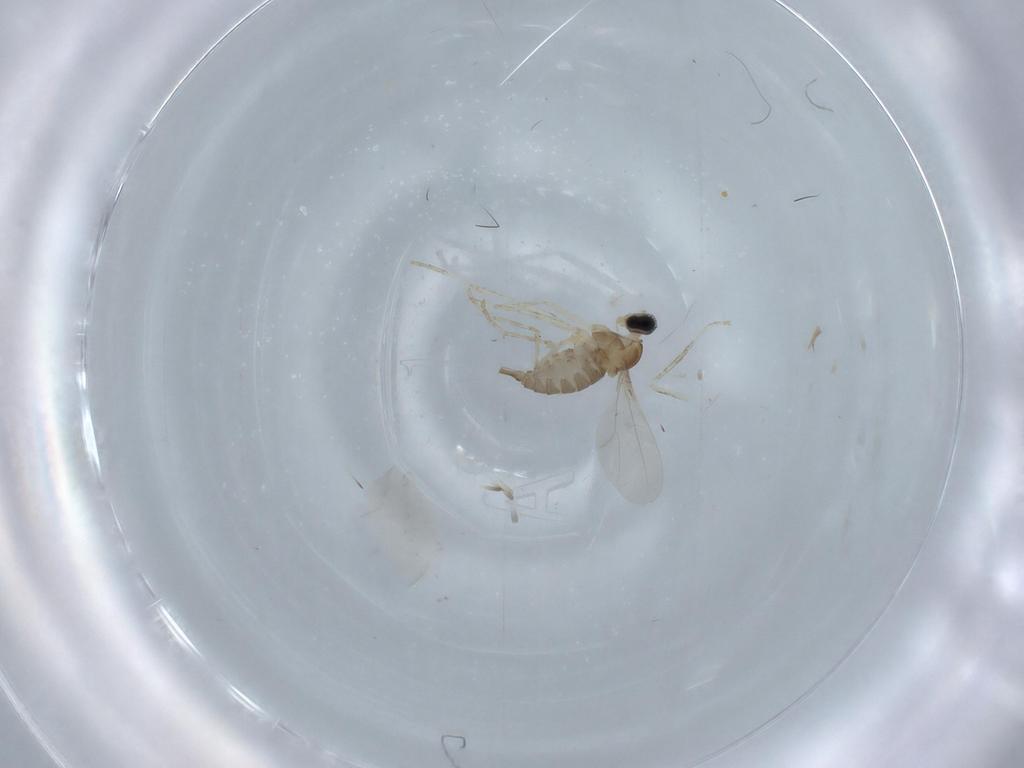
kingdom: Animalia
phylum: Arthropoda
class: Insecta
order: Diptera
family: Cecidomyiidae
